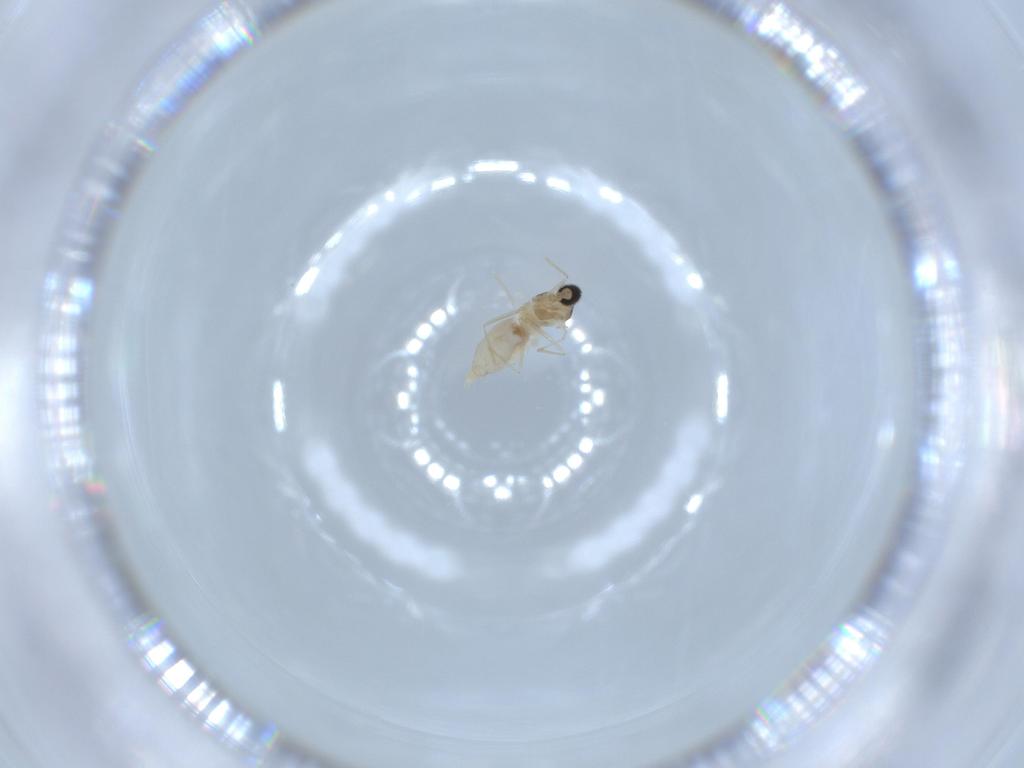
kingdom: Animalia
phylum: Arthropoda
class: Insecta
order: Diptera
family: Cecidomyiidae
